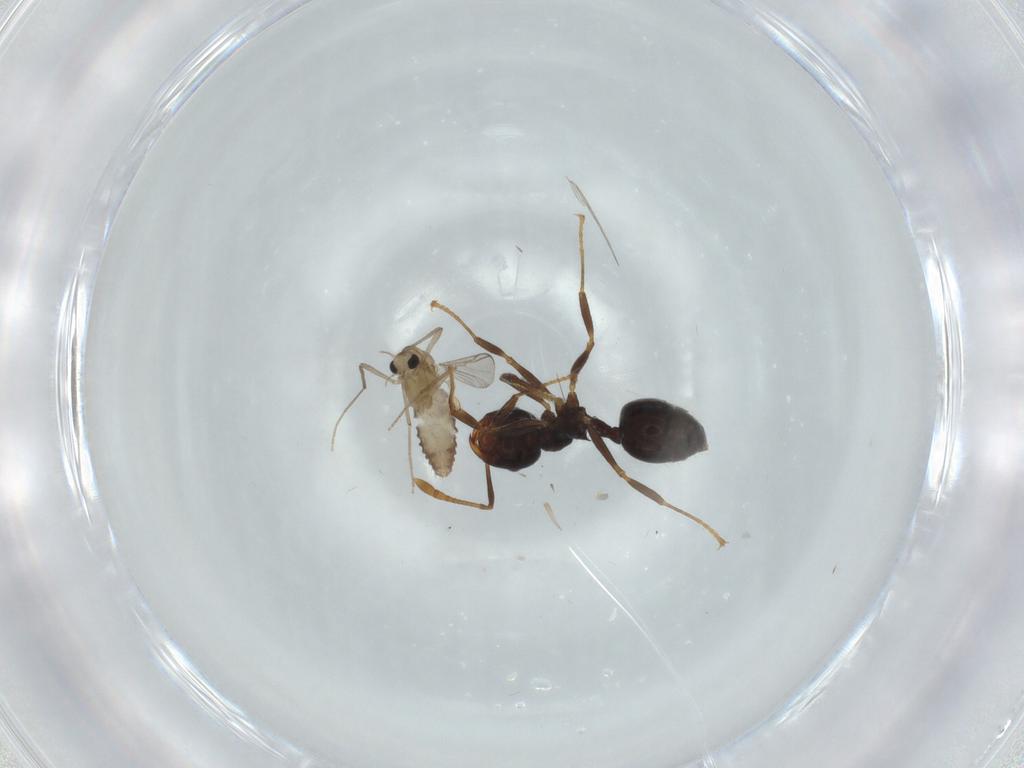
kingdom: Animalia
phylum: Arthropoda
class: Insecta
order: Diptera
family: Chironomidae
